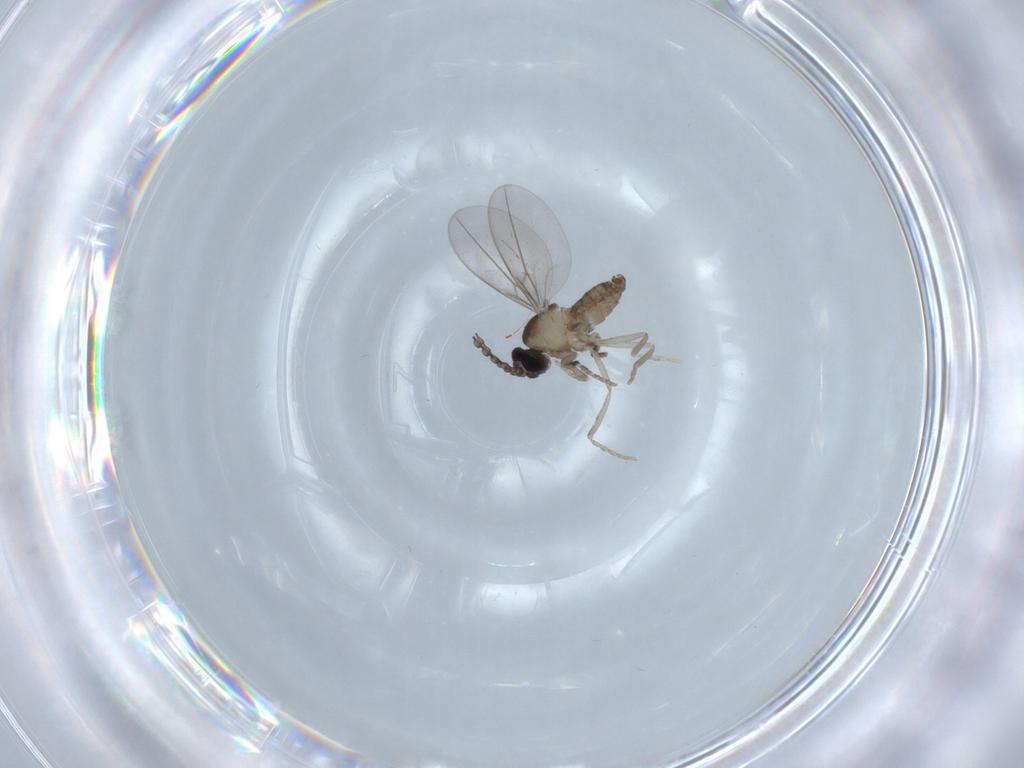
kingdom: Animalia
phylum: Arthropoda
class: Insecta
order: Diptera
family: Cecidomyiidae
